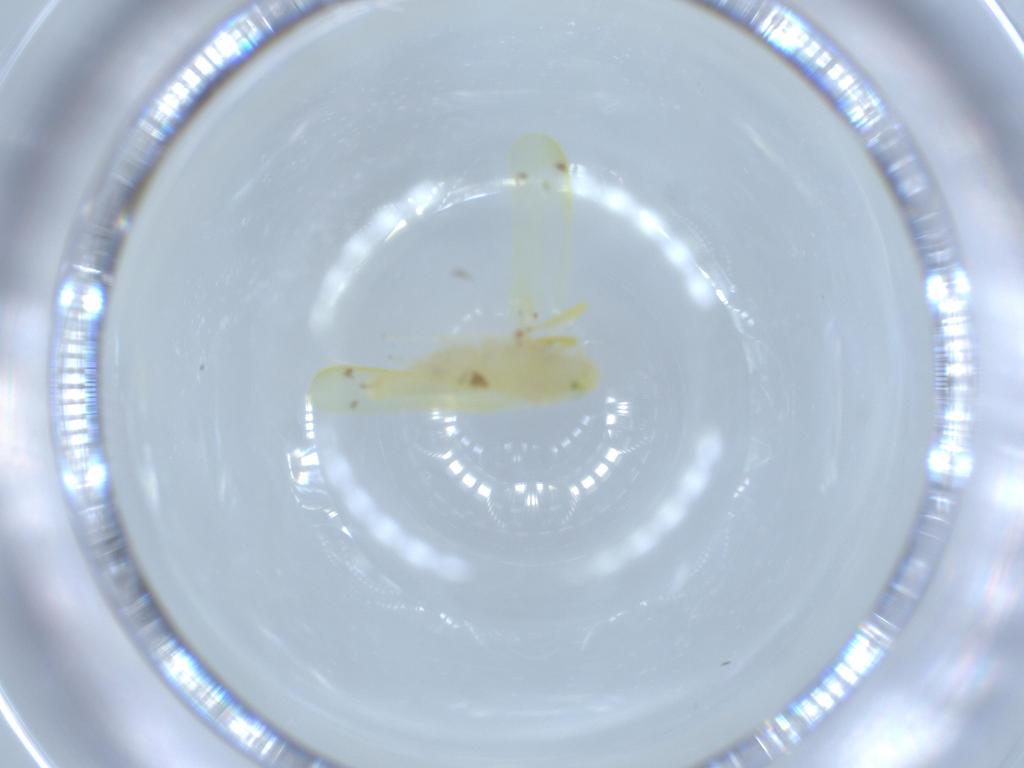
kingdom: Animalia
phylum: Arthropoda
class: Insecta
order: Hemiptera
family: Cicadellidae
